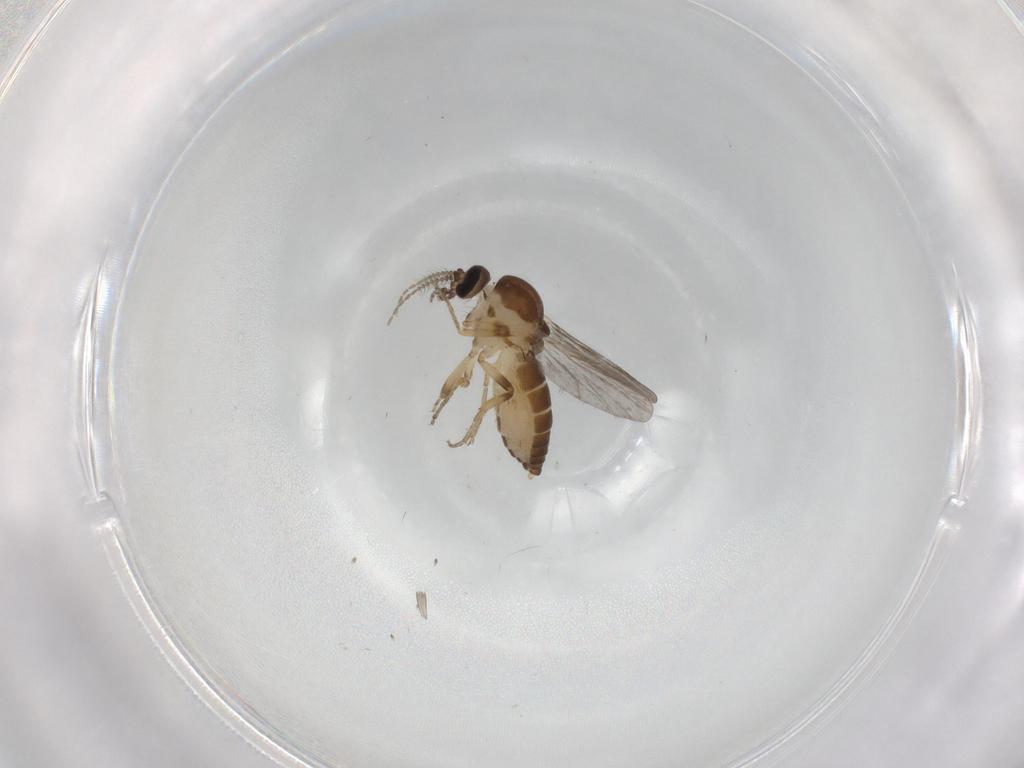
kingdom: Animalia
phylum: Arthropoda
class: Insecta
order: Diptera
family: Ceratopogonidae
